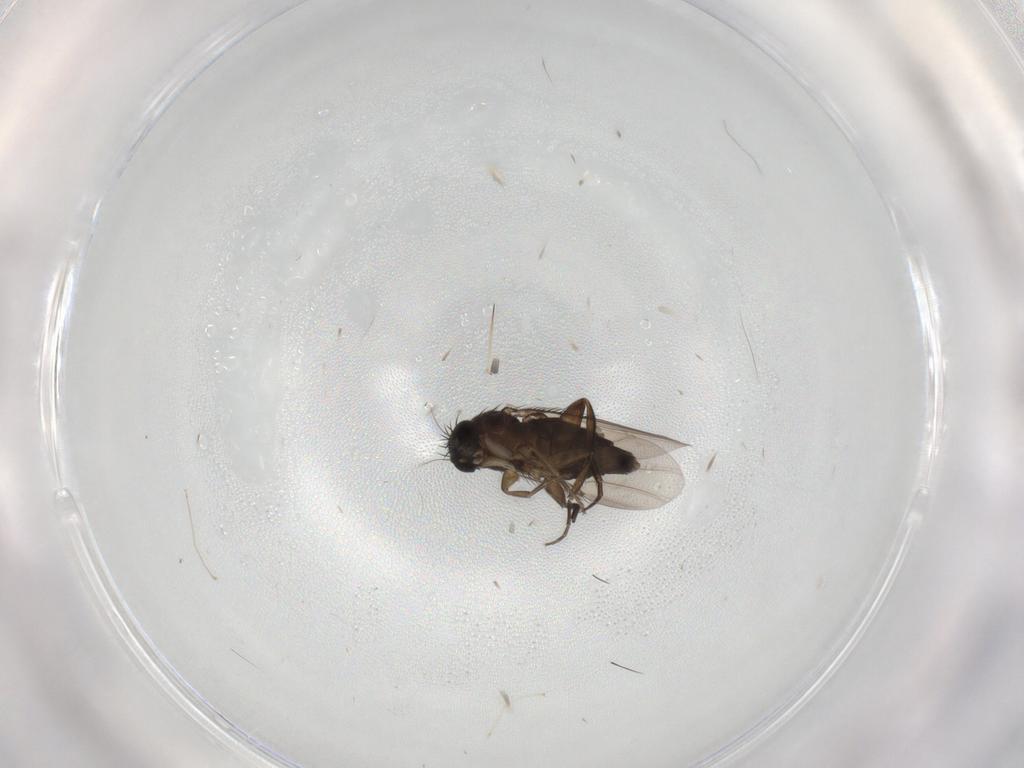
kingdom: Animalia
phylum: Arthropoda
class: Insecta
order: Diptera
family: Phoridae
